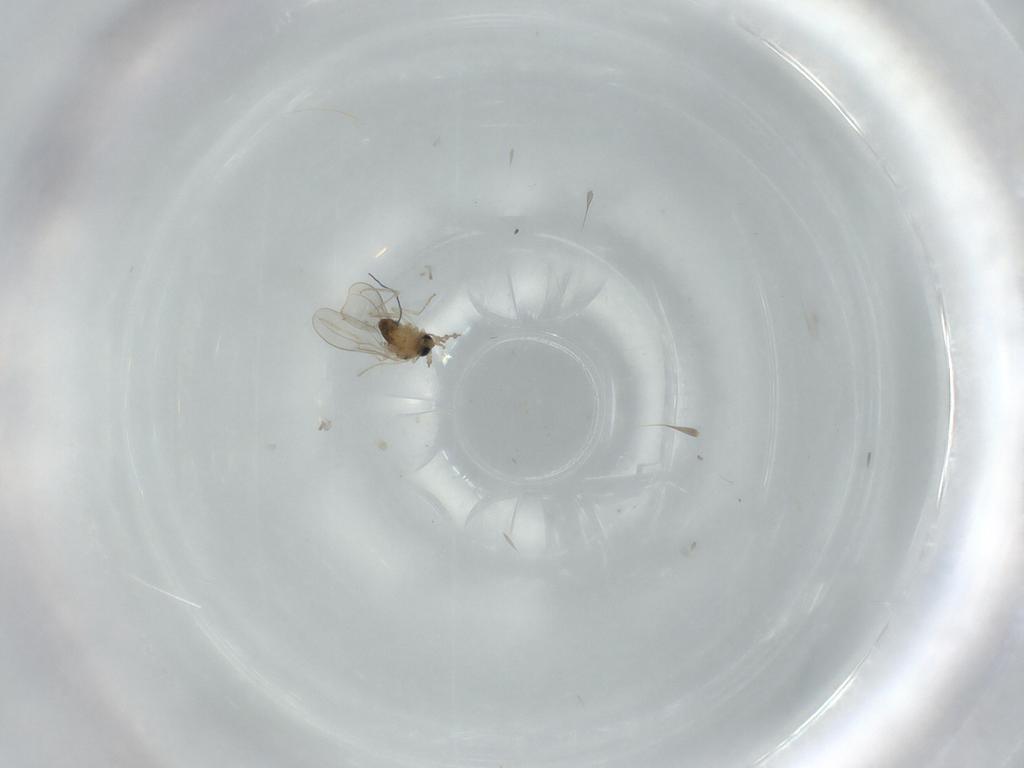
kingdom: Animalia
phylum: Arthropoda
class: Insecta
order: Diptera
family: Cecidomyiidae
